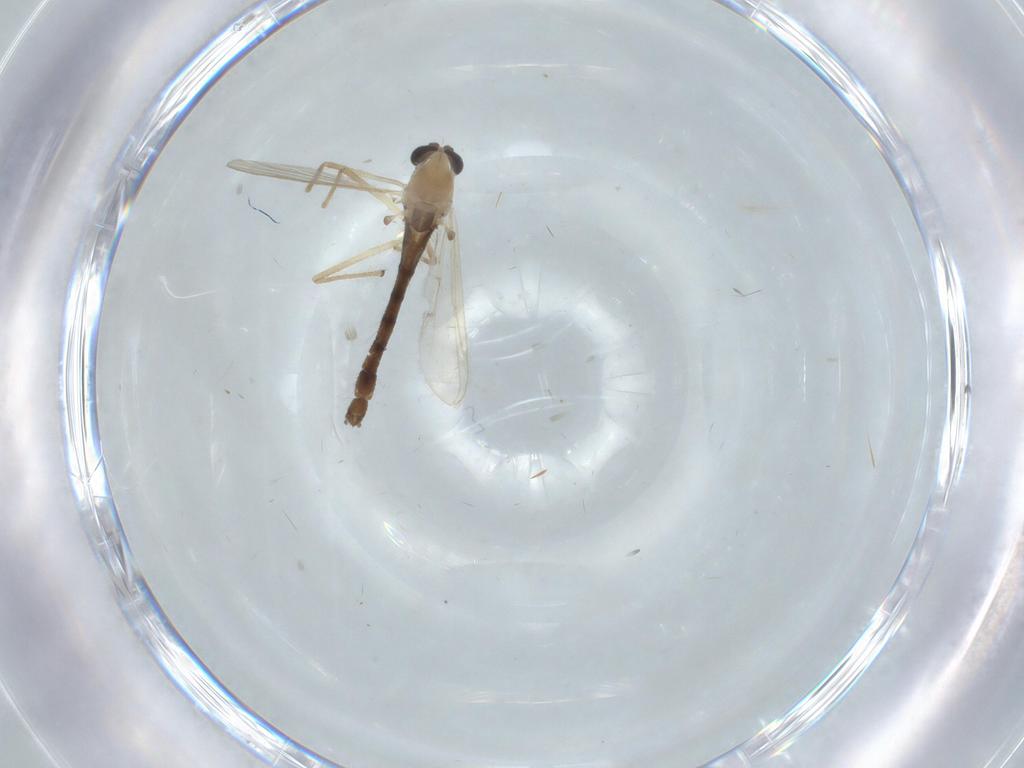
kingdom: Animalia
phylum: Arthropoda
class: Insecta
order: Diptera
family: Chironomidae
